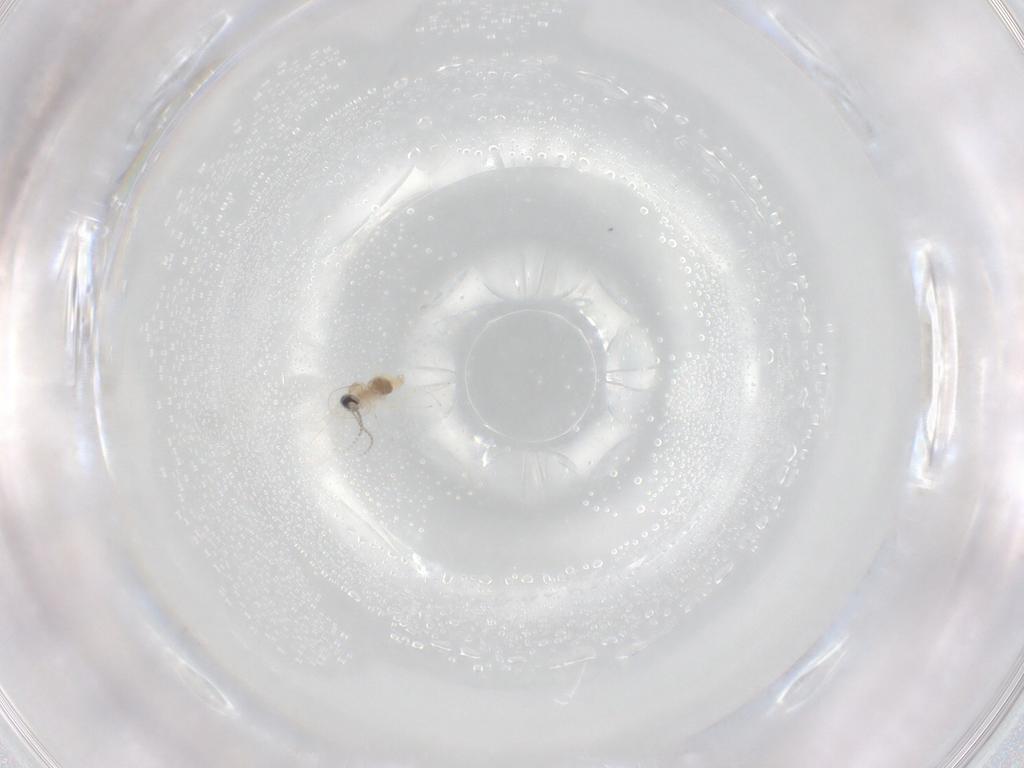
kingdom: Animalia
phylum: Arthropoda
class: Insecta
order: Diptera
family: Cecidomyiidae
